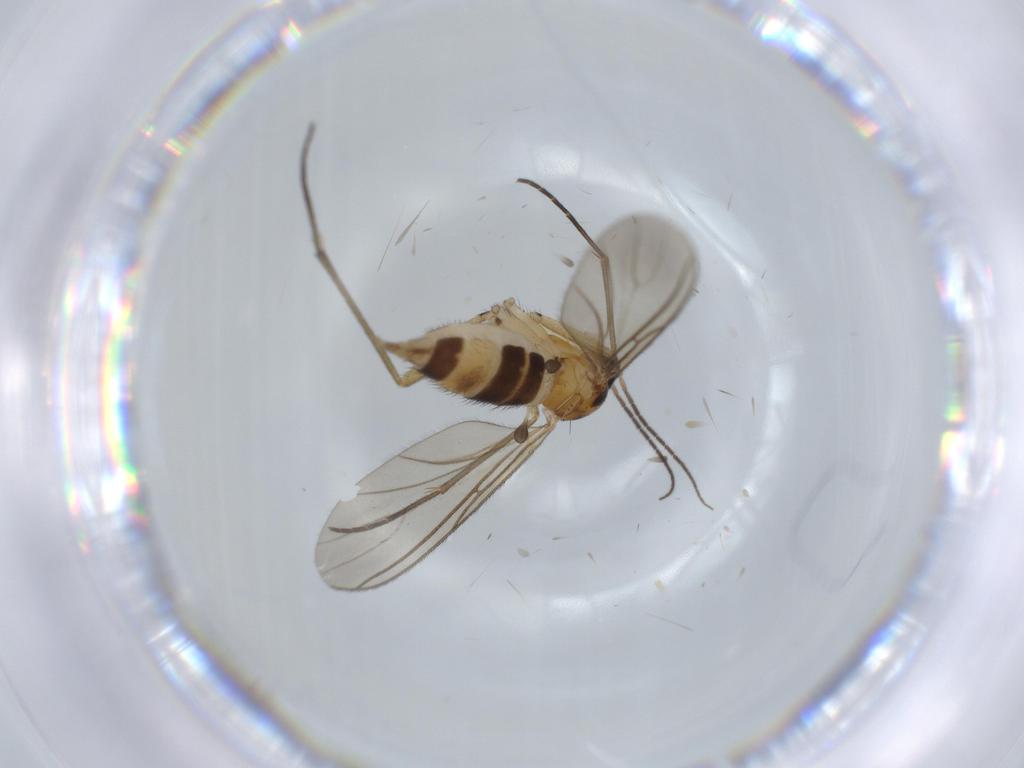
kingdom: Animalia
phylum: Arthropoda
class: Insecta
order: Diptera
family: Sciaridae
